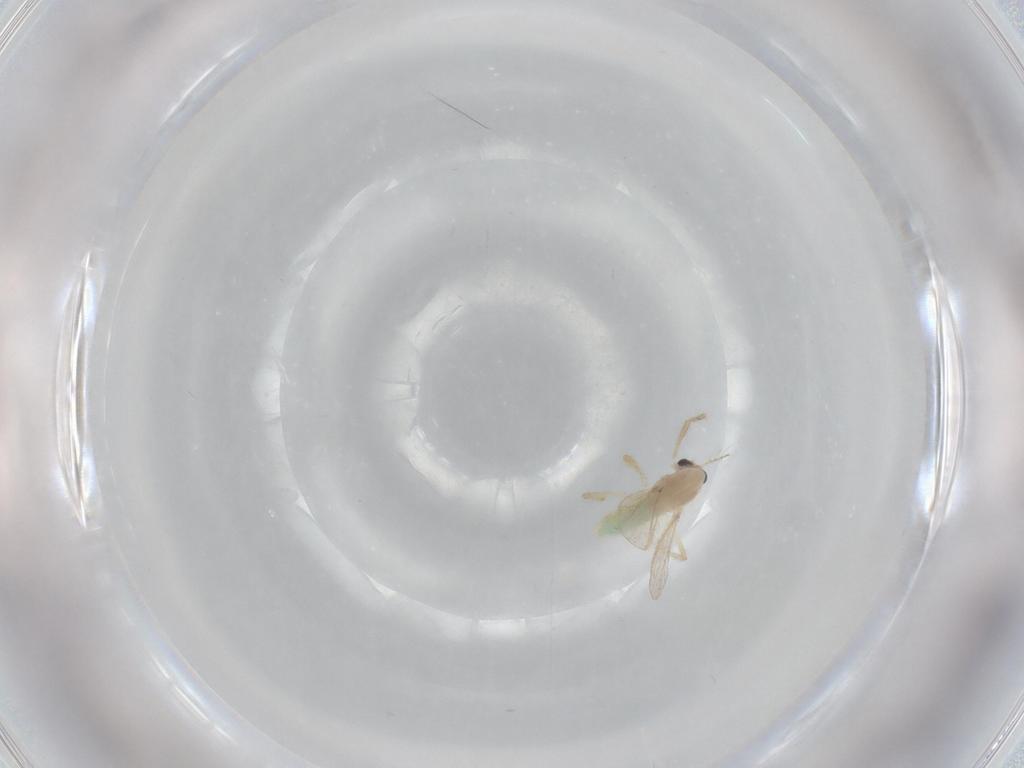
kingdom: Animalia
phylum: Arthropoda
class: Insecta
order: Diptera
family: Chironomidae
